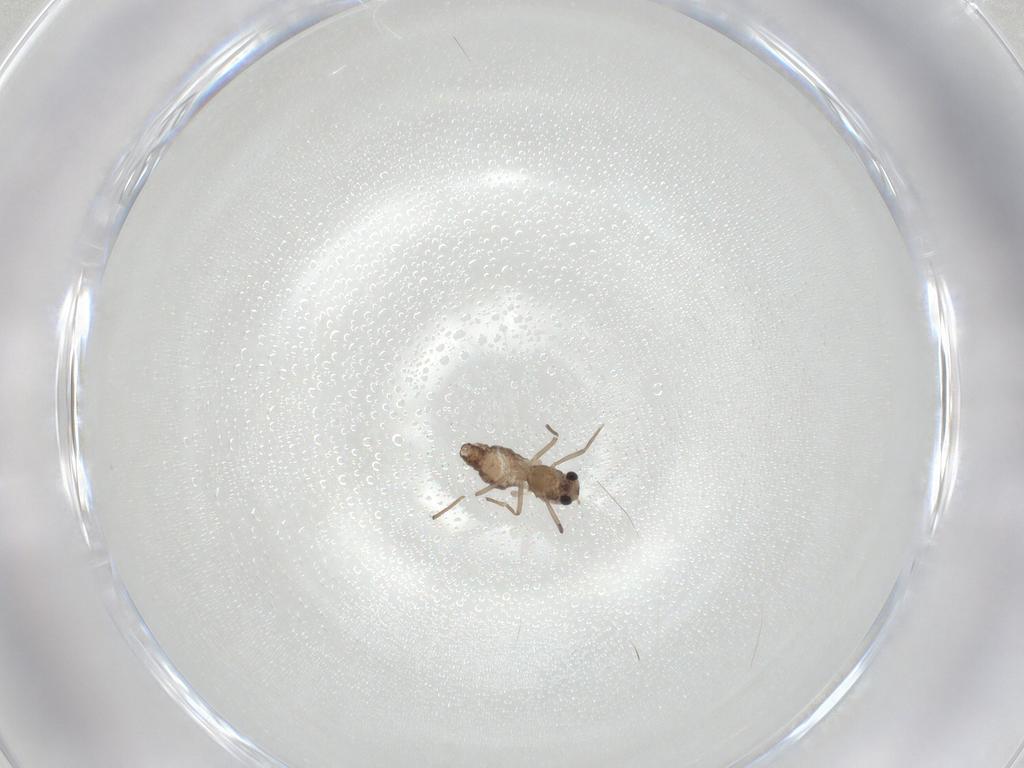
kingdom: Animalia
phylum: Arthropoda
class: Insecta
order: Diptera
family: Chironomidae
